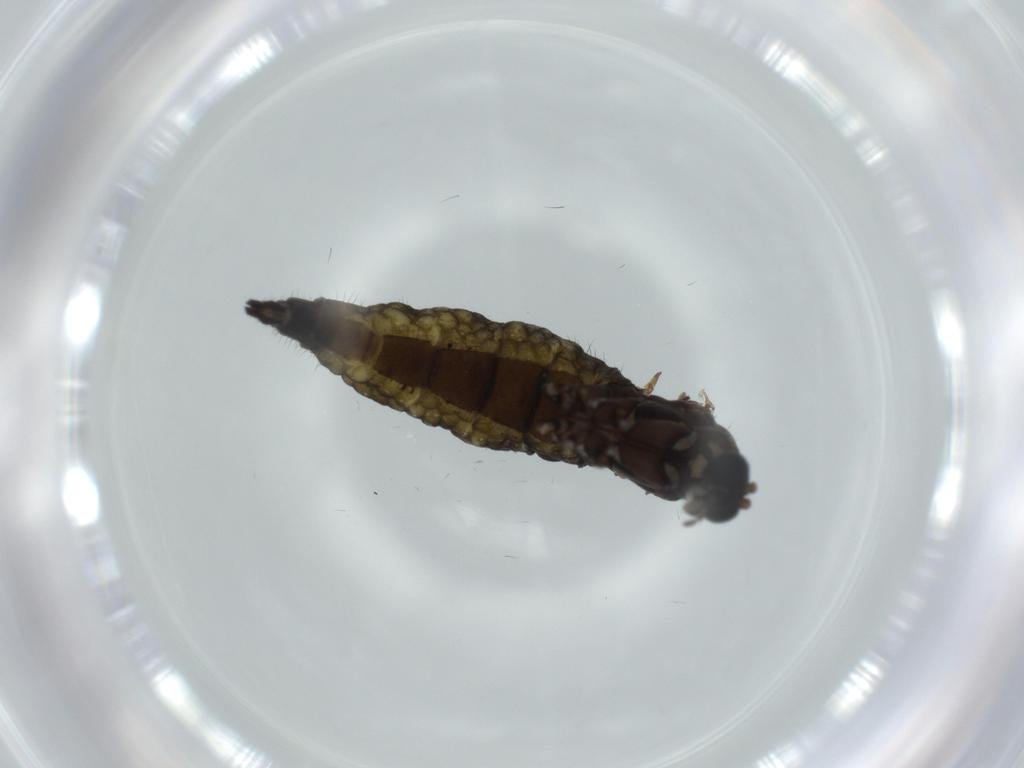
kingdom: Animalia
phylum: Arthropoda
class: Insecta
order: Diptera
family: Sciaridae
